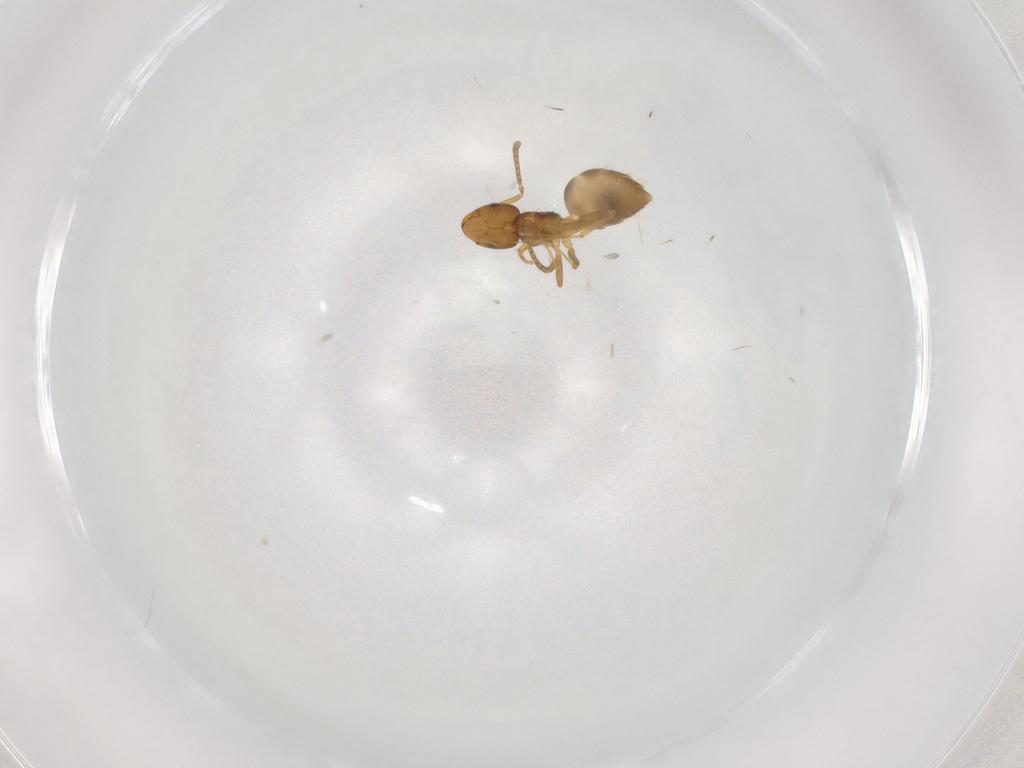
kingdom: Animalia
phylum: Arthropoda
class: Insecta
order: Hymenoptera
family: Formicidae
